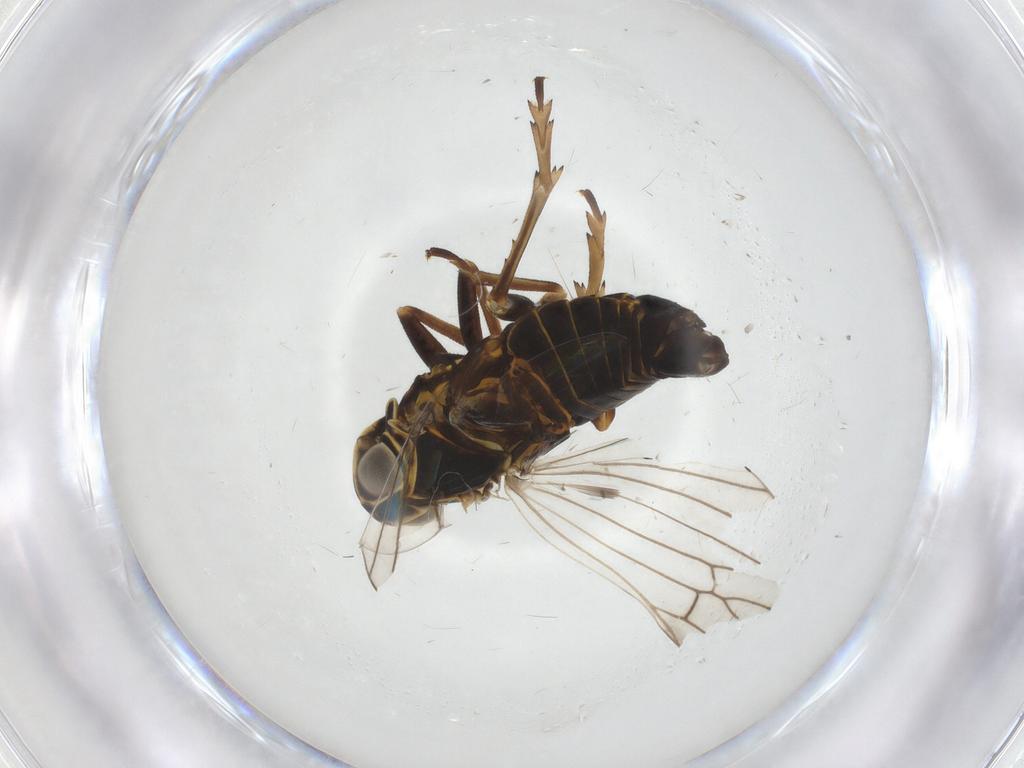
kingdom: Animalia
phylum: Arthropoda
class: Insecta
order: Hemiptera
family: Cixiidae
